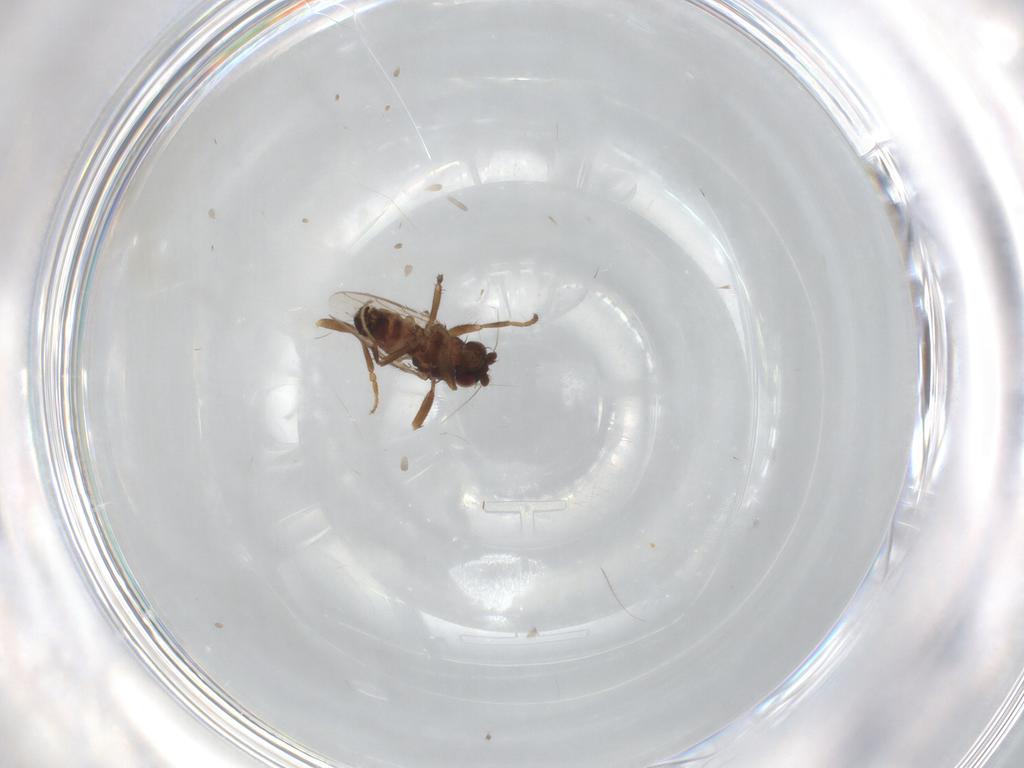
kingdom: Animalia
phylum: Arthropoda
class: Insecta
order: Diptera
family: Sphaeroceridae
